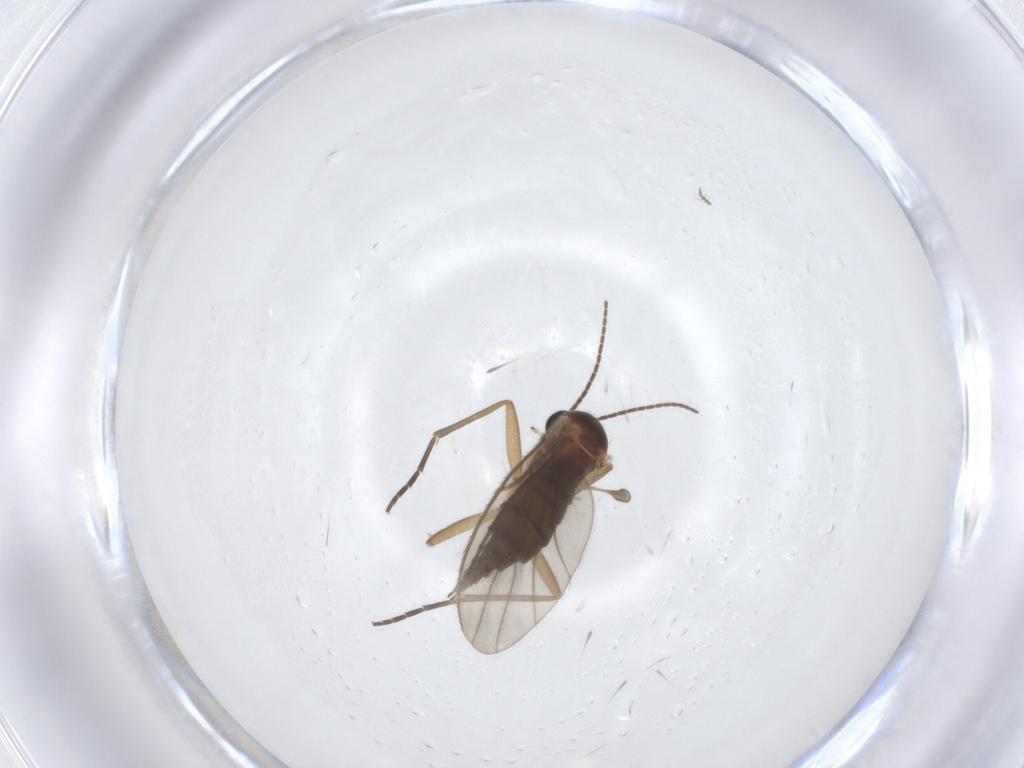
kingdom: Animalia
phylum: Arthropoda
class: Insecta
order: Diptera
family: Sciaridae
